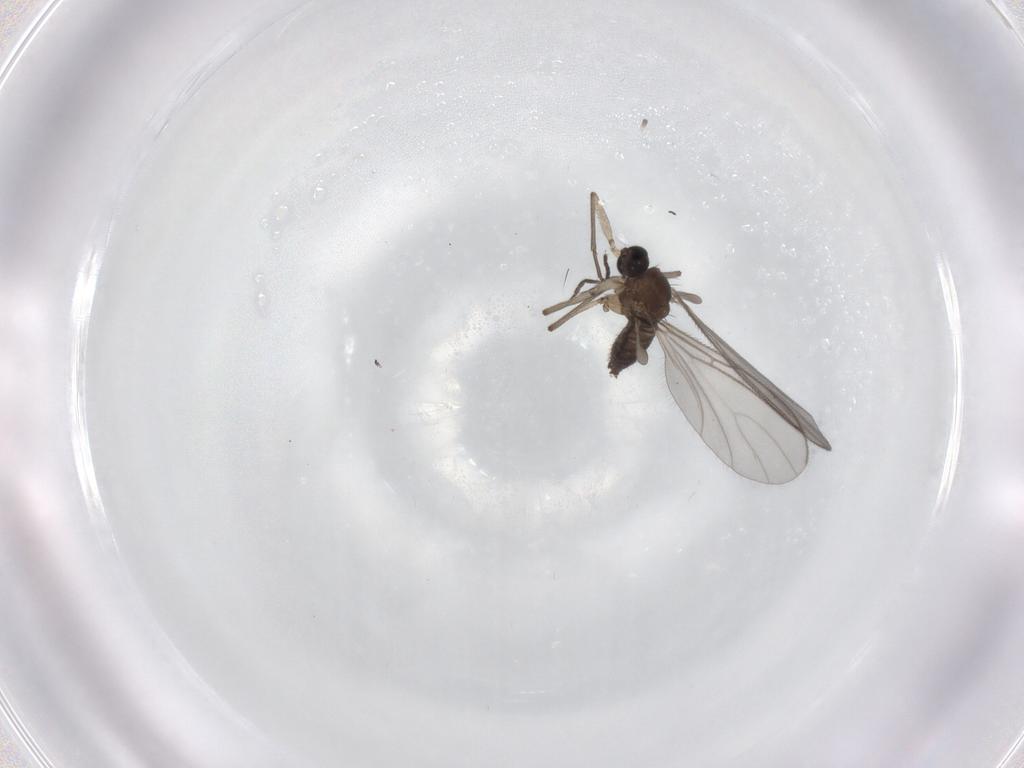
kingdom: Animalia
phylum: Arthropoda
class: Insecta
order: Diptera
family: Sciaridae
